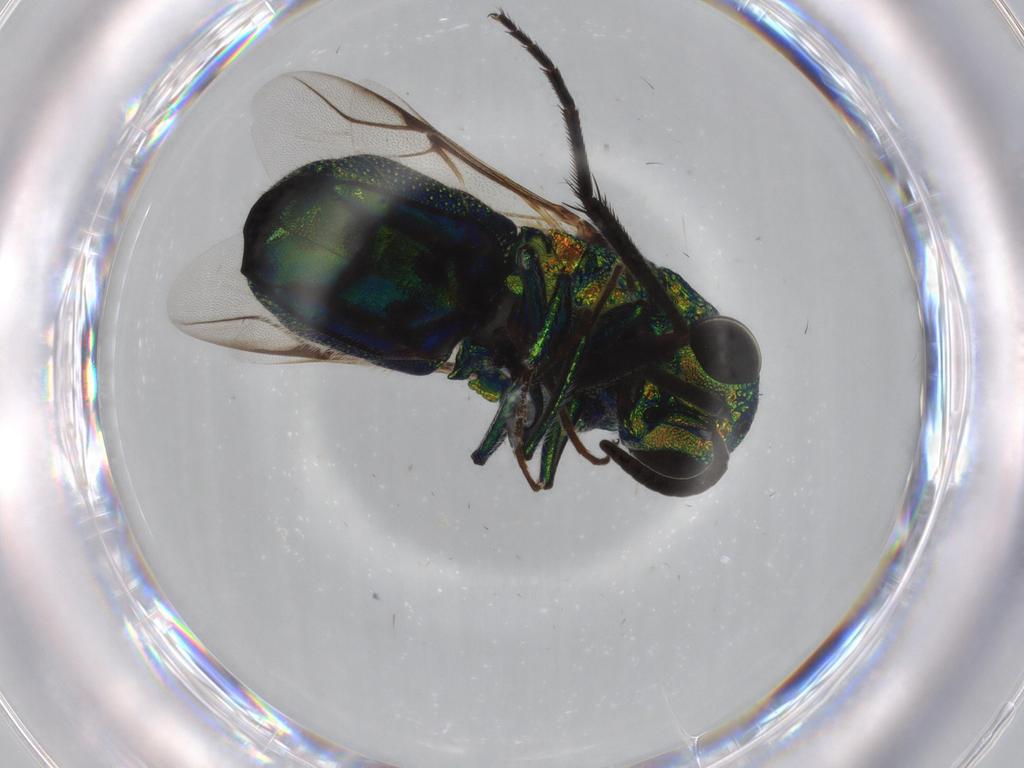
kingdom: Animalia
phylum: Arthropoda
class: Insecta
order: Hymenoptera
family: Chrysididae
